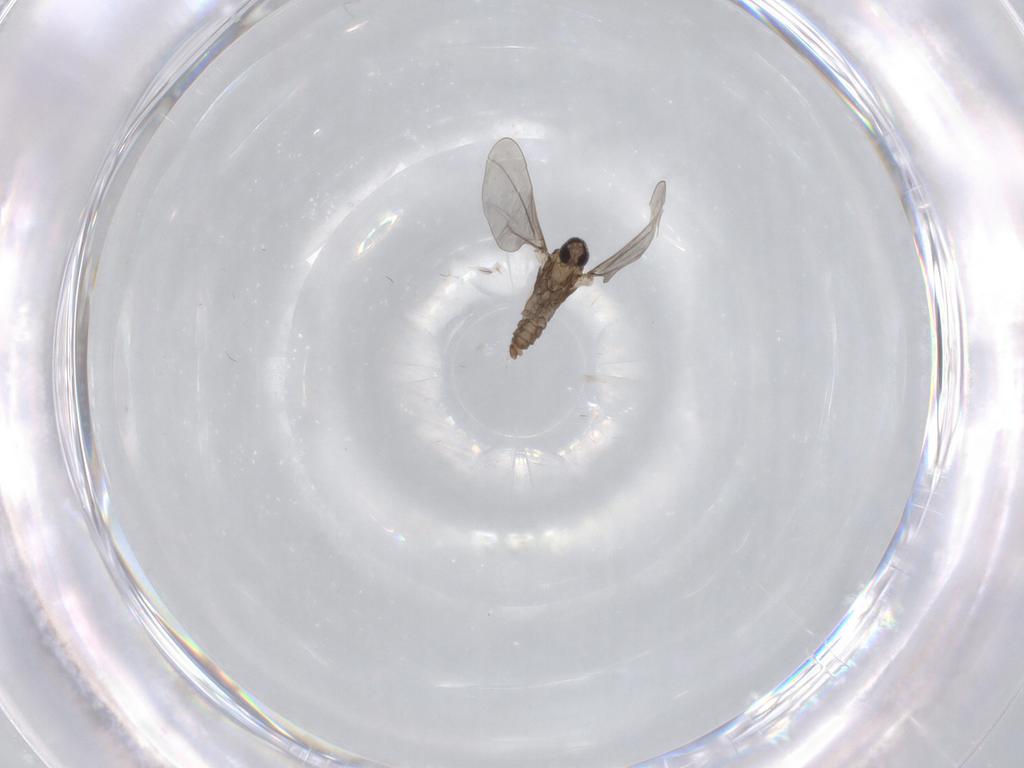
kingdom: Animalia
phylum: Arthropoda
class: Insecta
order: Diptera
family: Cecidomyiidae
